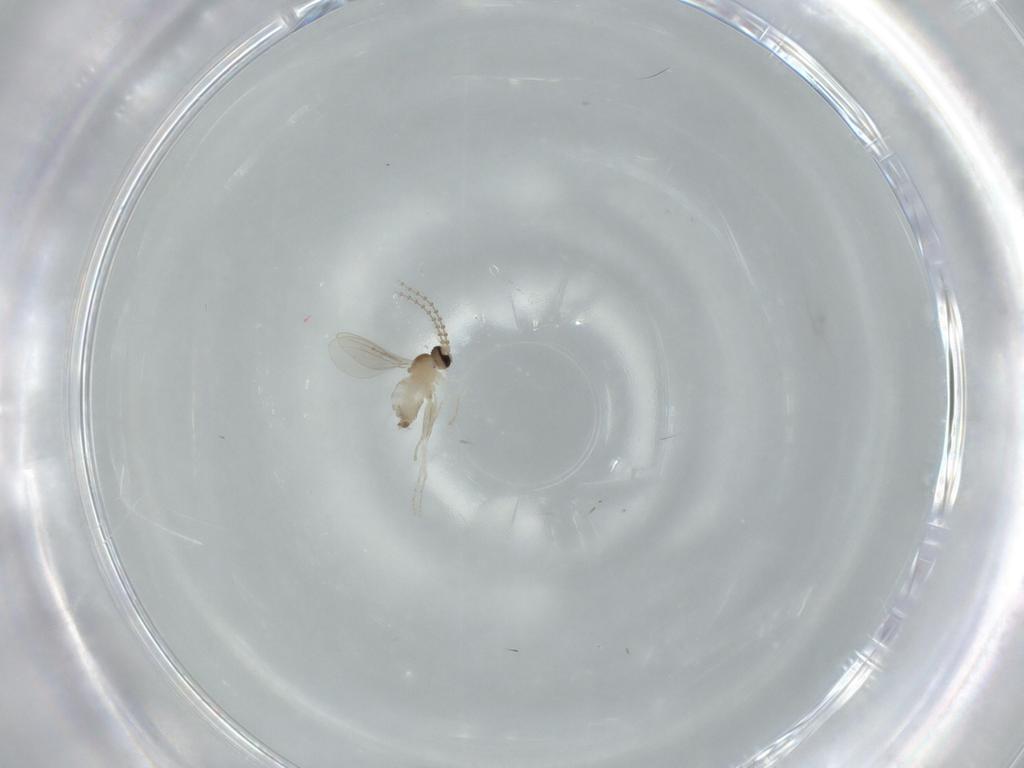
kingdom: Animalia
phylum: Arthropoda
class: Insecta
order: Diptera
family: Cecidomyiidae
